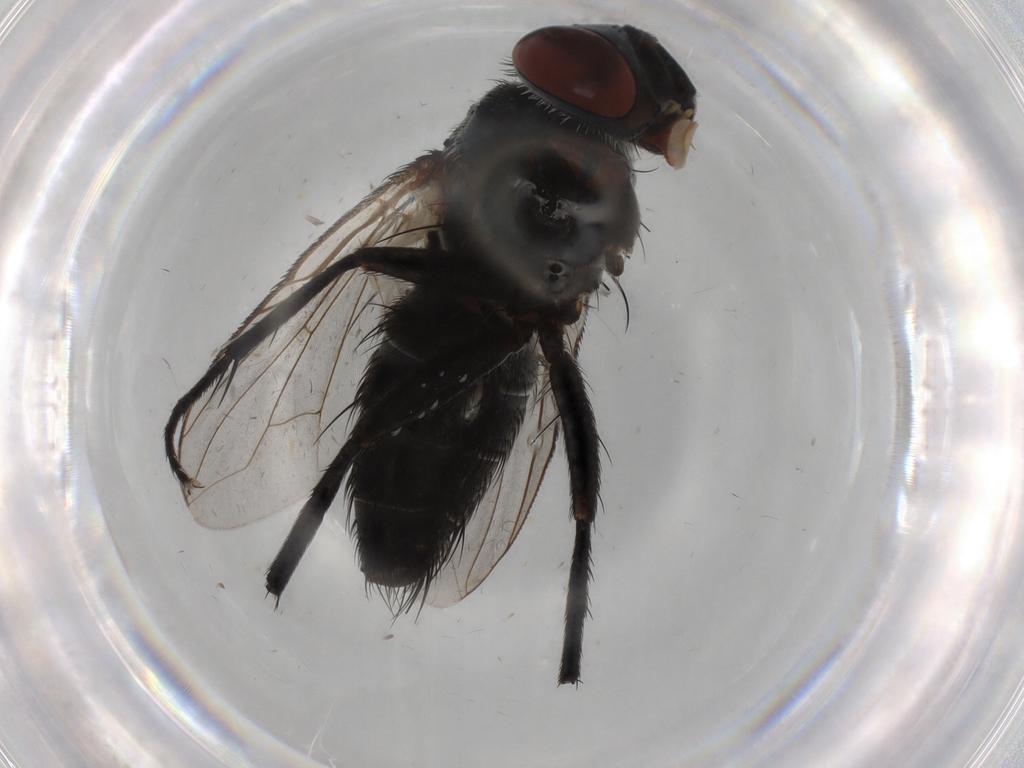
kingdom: Animalia
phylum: Arthropoda
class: Insecta
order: Diptera
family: Tachinidae
